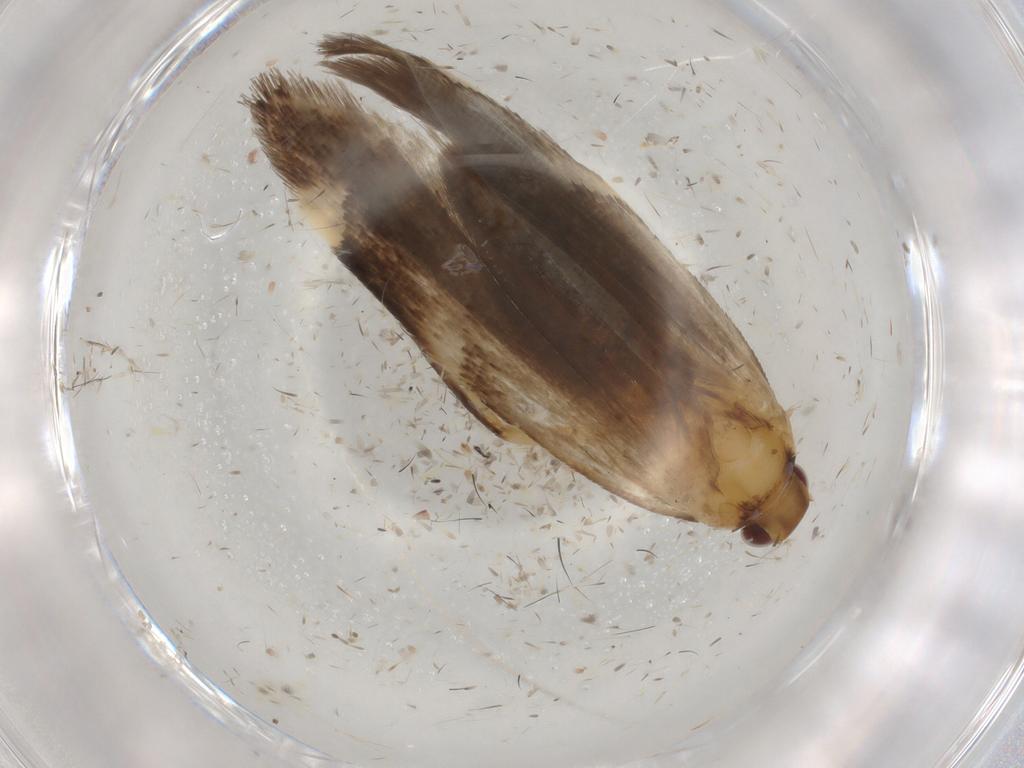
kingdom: Animalia
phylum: Arthropoda
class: Insecta
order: Lepidoptera
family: Gelechiidae
